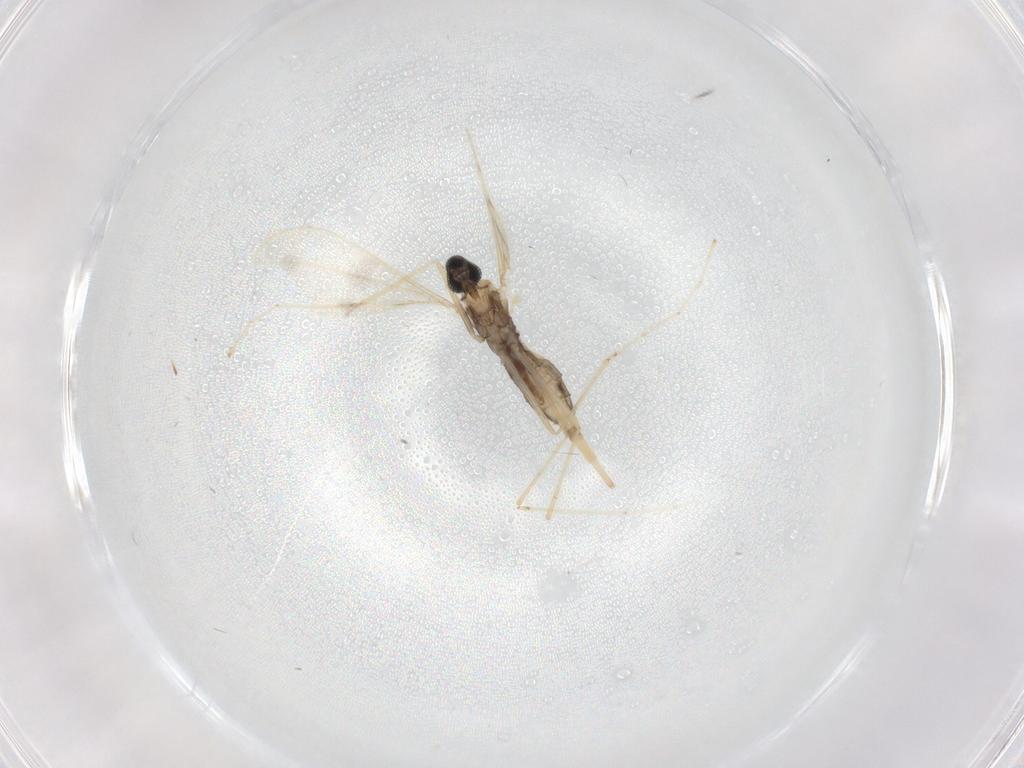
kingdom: Animalia
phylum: Arthropoda
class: Insecta
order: Diptera
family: Cecidomyiidae
